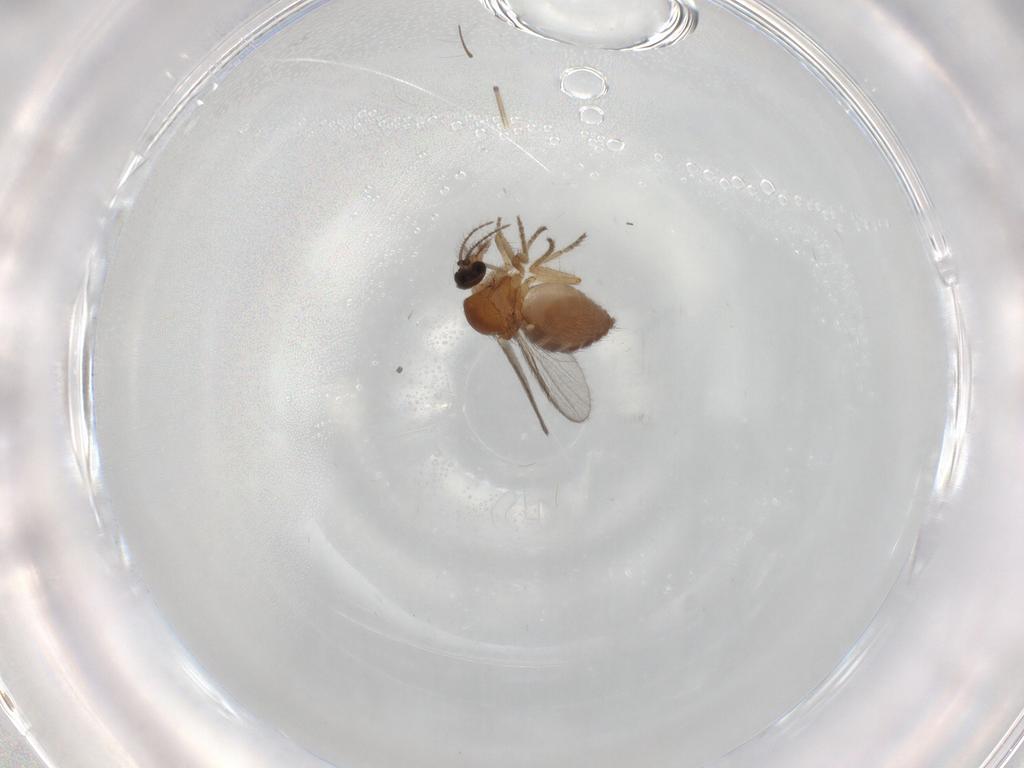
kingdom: Animalia
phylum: Arthropoda
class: Insecta
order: Diptera
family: Ceratopogonidae
